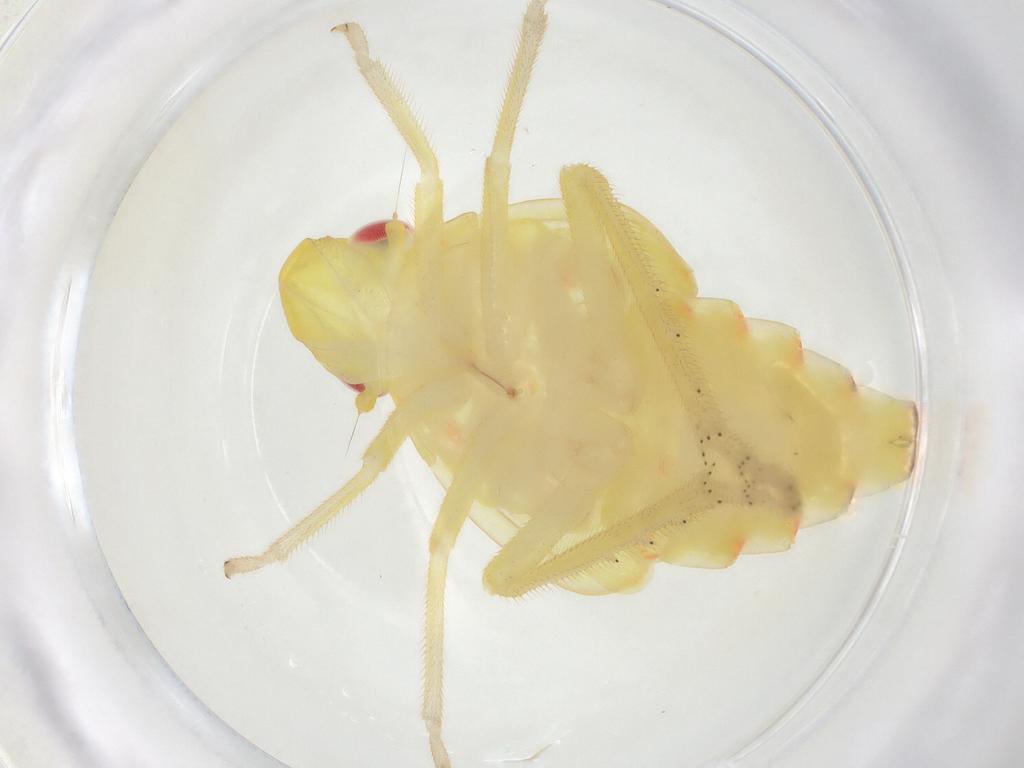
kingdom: Animalia
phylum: Arthropoda
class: Insecta
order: Hemiptera
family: Tropiduchidae
